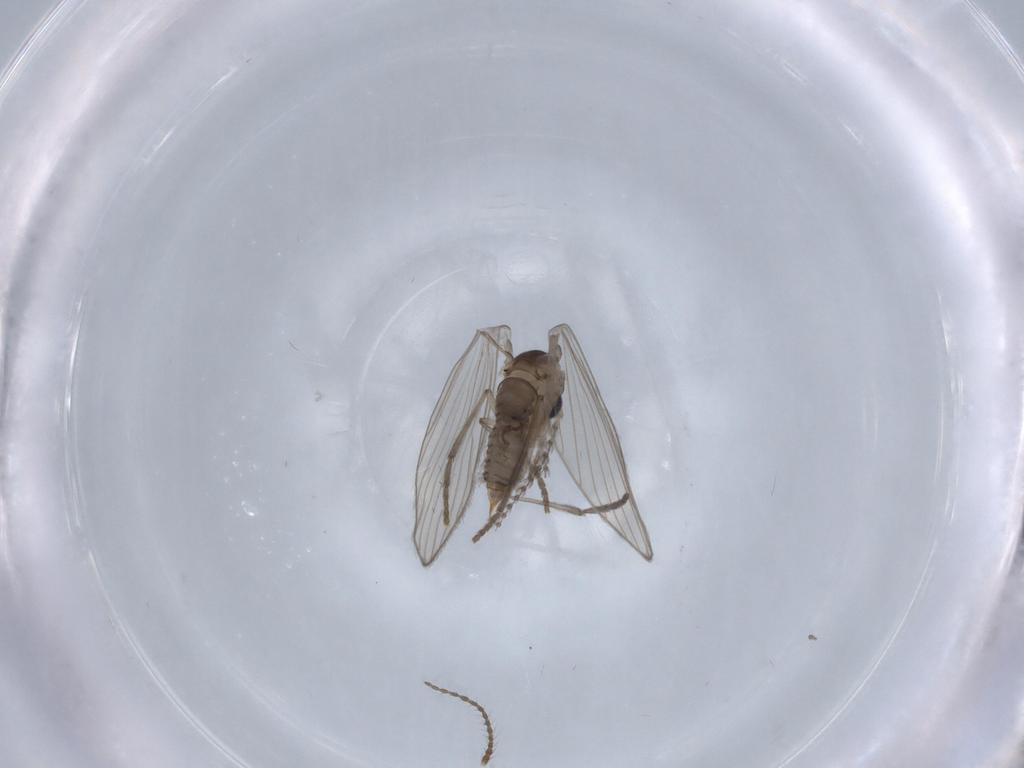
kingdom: Animalia
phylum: Arthropoda
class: Insecta
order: Diptera
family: Psychodidae
